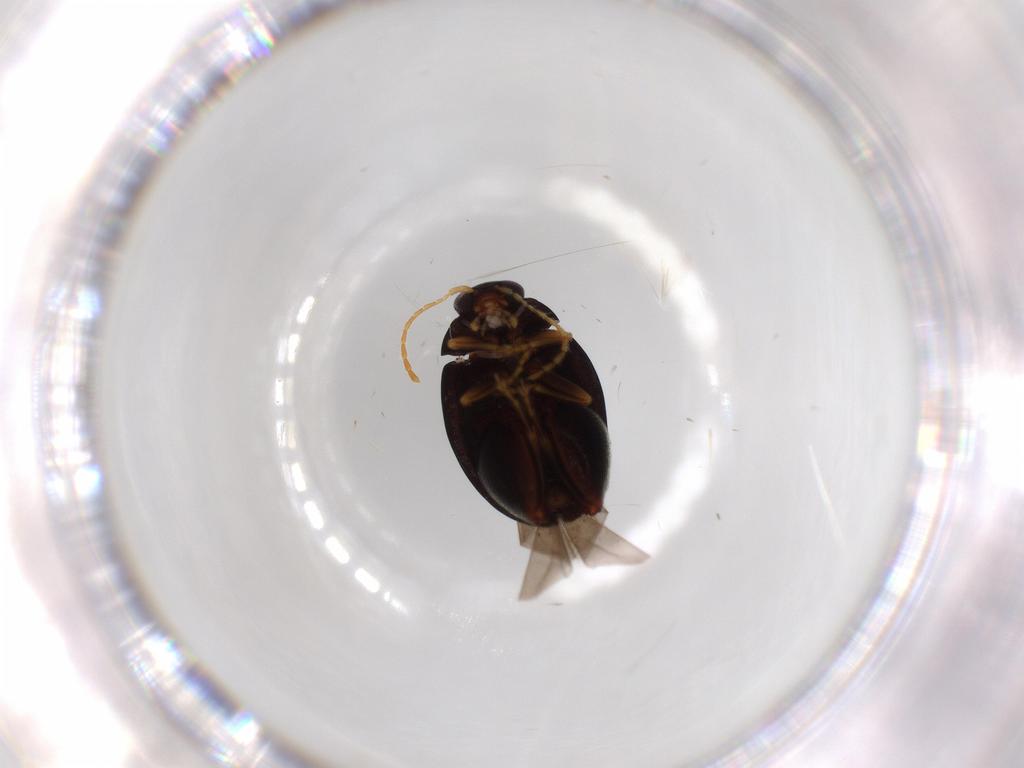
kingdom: Animalia
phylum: Arthropoda
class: Insecta
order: Coleoptera
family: Chrysomelidae
